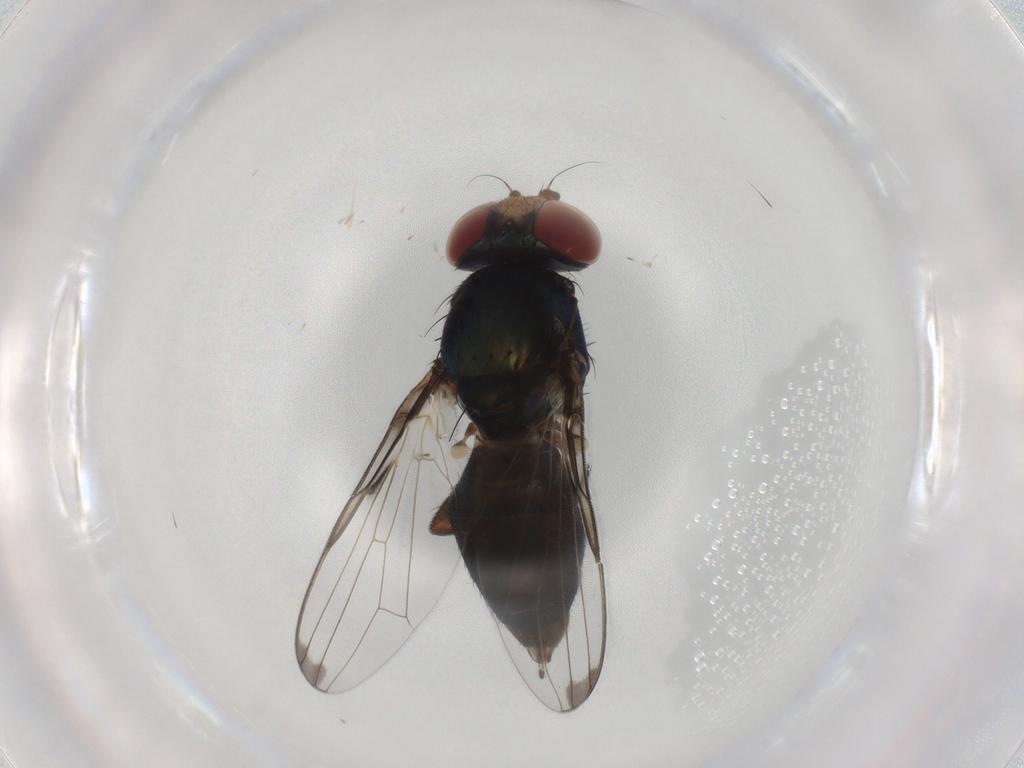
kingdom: Animalia
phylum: Arthropoda
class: Insecta
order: Diptera
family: Ulidiidae
